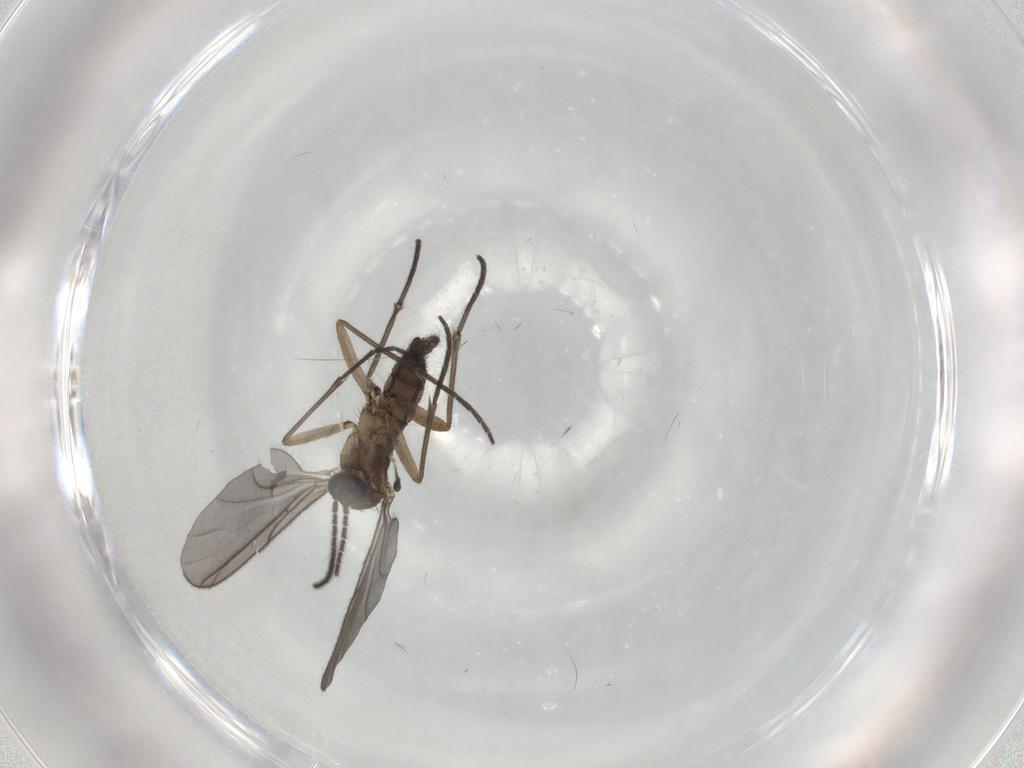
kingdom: Animalia
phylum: Arthropoda
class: Insecta
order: Diptera
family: Sciaridae
